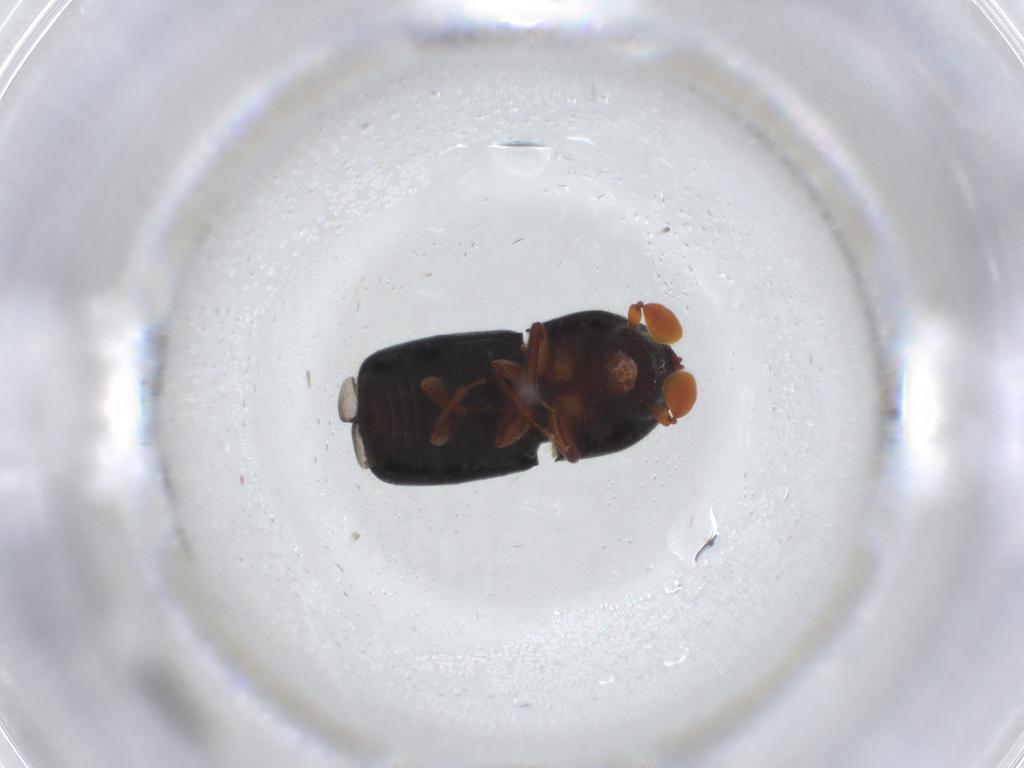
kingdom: Animalia
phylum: Arthropoda
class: Insecta
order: Coleoptera
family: Curculionidae
